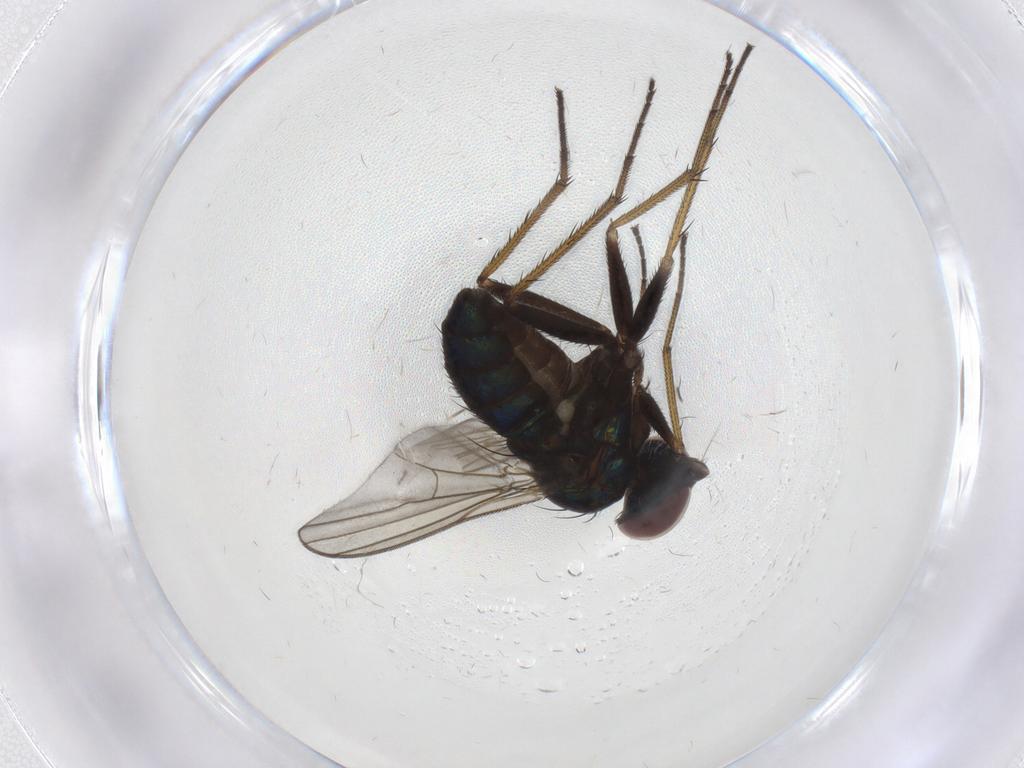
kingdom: Animalia
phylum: Arthropoda
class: Insecta
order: Diptera
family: Dolichopodidae
